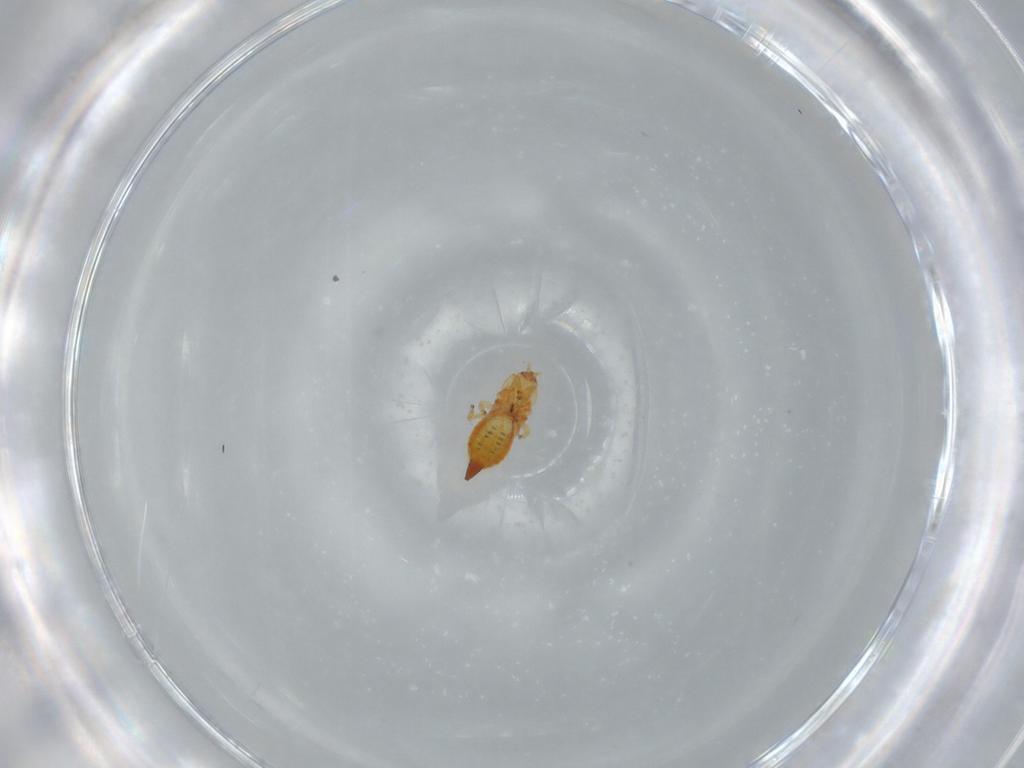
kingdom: Animalia
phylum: Arthropoda
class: Insecta
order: Thysanoptera
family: Phlaeothripidae
